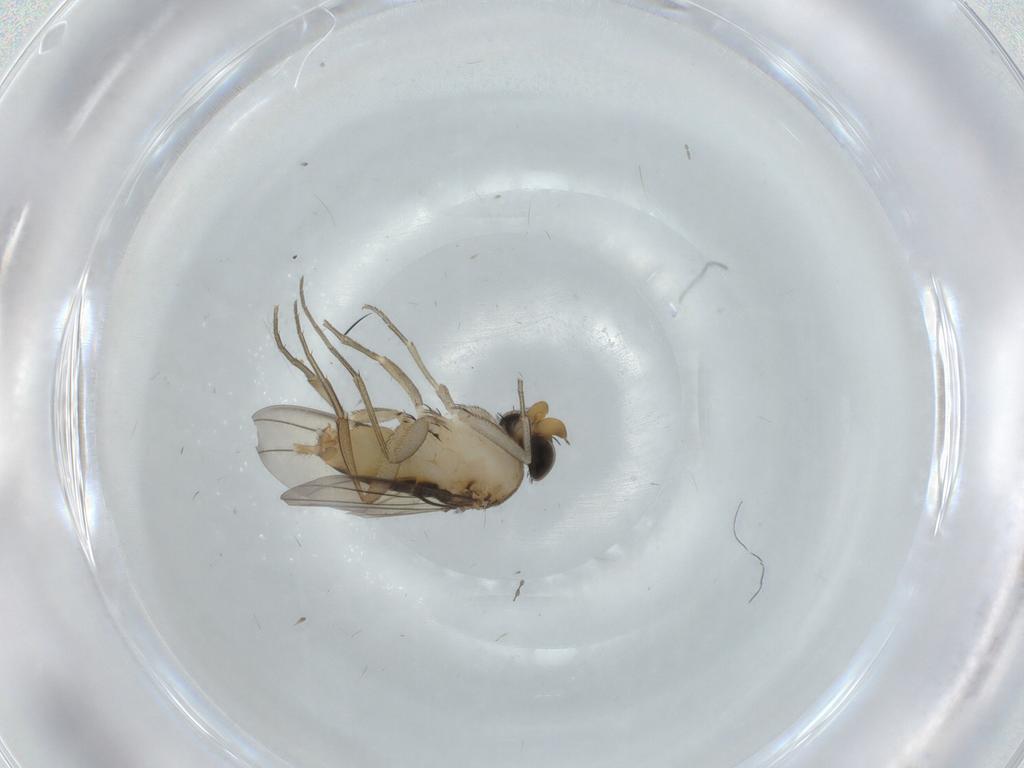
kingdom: Animalia
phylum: Arthropoda
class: Insecta
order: Diptera
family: Phoridae
